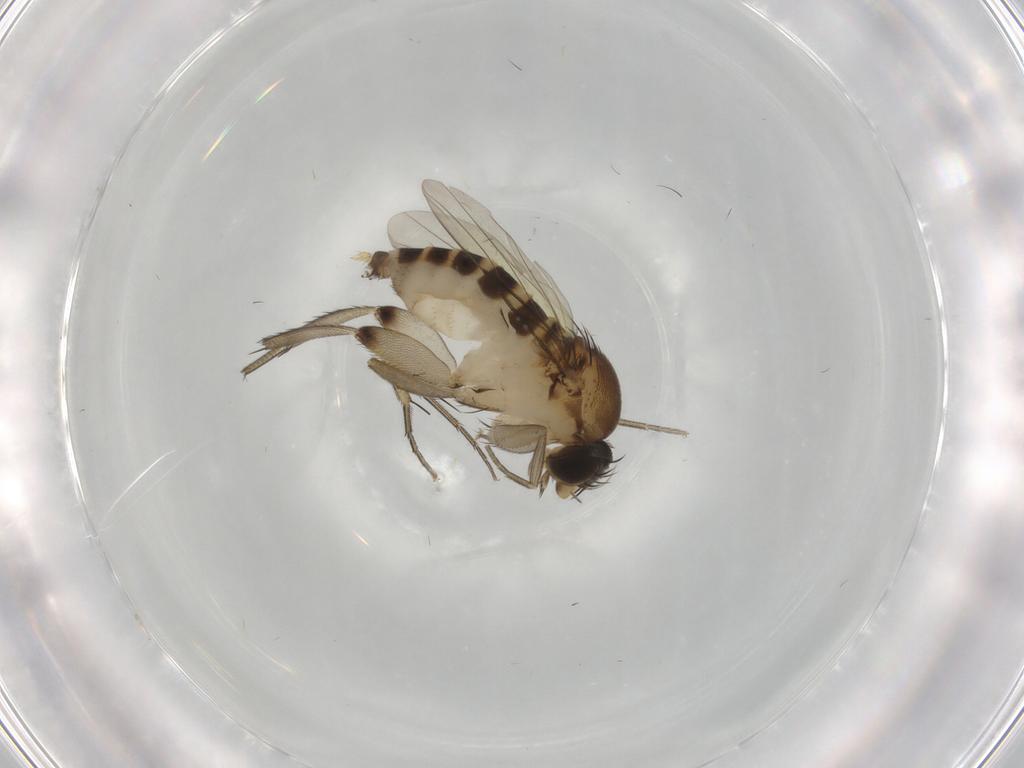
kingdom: Animalia
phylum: Arthropoda
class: Insecta
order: Diptera
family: Phoridae
